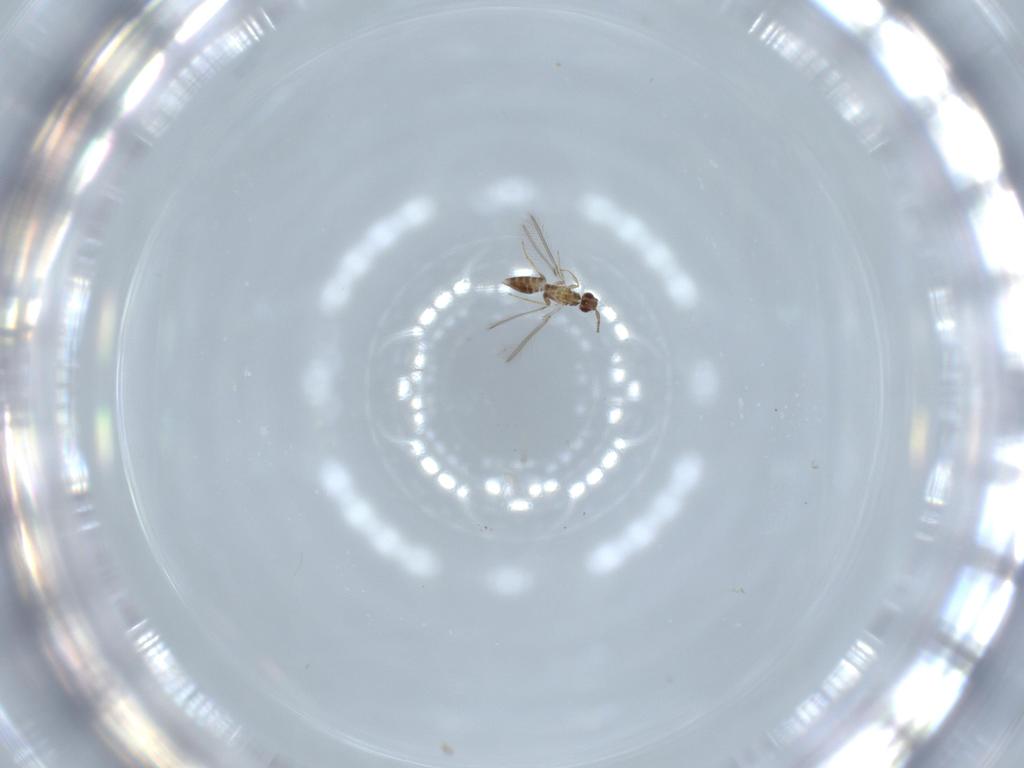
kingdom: Animalia
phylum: Arthropoda
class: Insecta
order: Hymenoptera
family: Mymaridae
